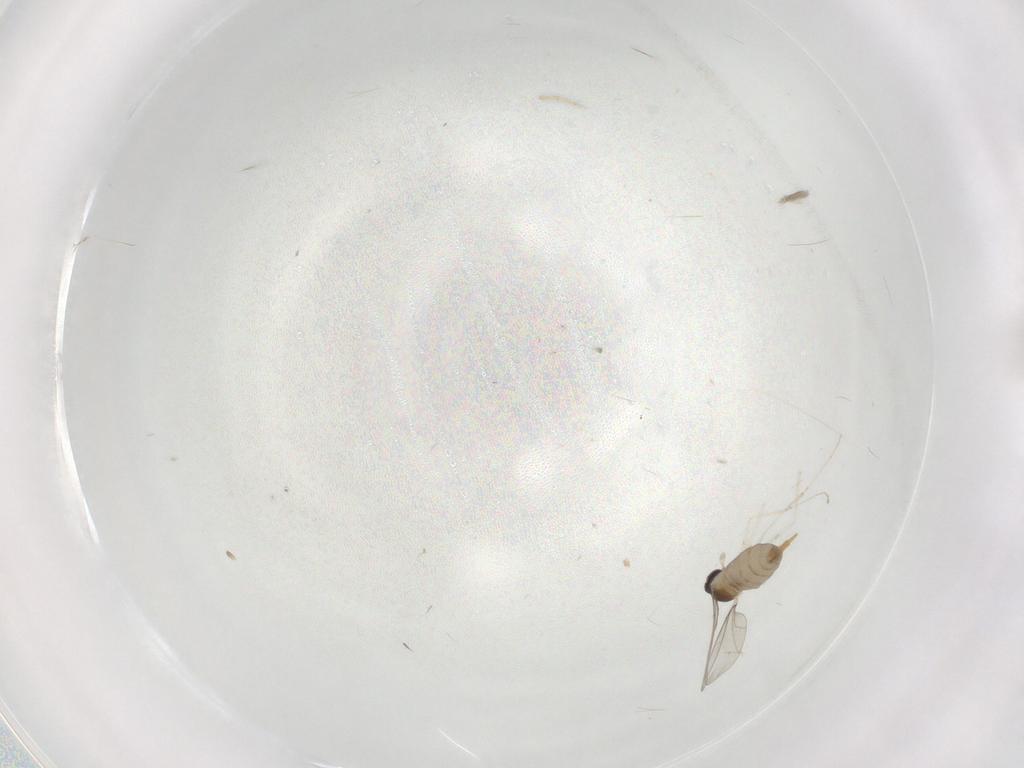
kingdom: Animalia
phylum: Arthropoda
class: Insecta
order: Diptera
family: Cecidomyiidae
